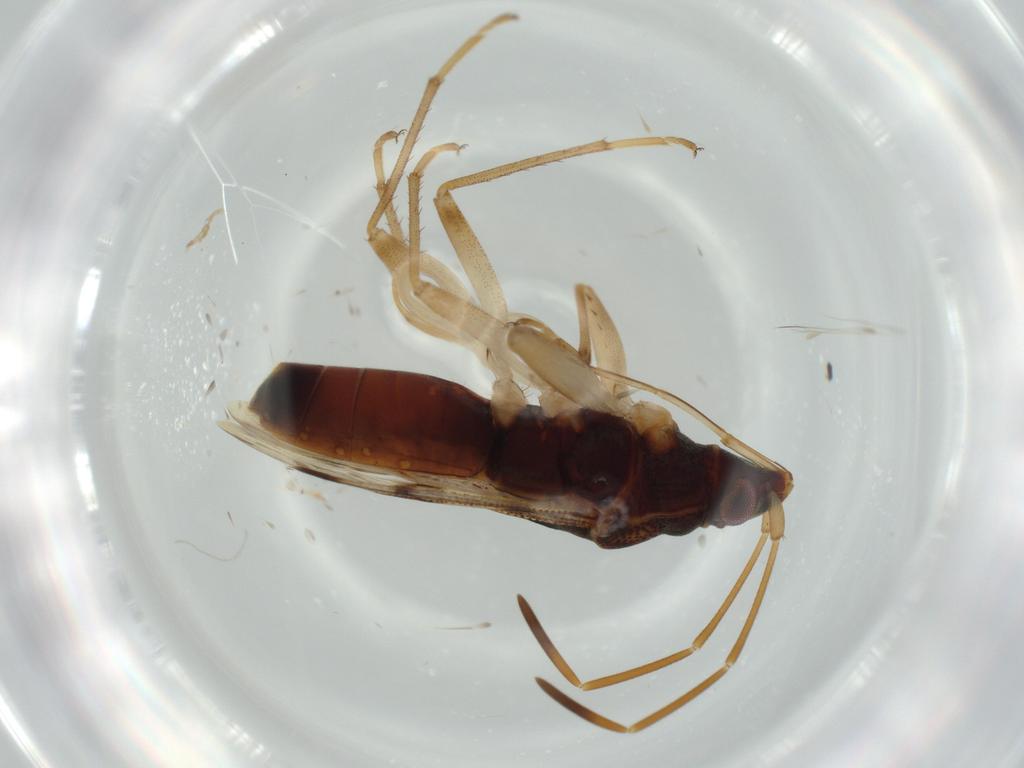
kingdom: Animalia
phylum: Arthropoda
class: Insecta
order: Hemiptera
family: Rhyparochromidae
